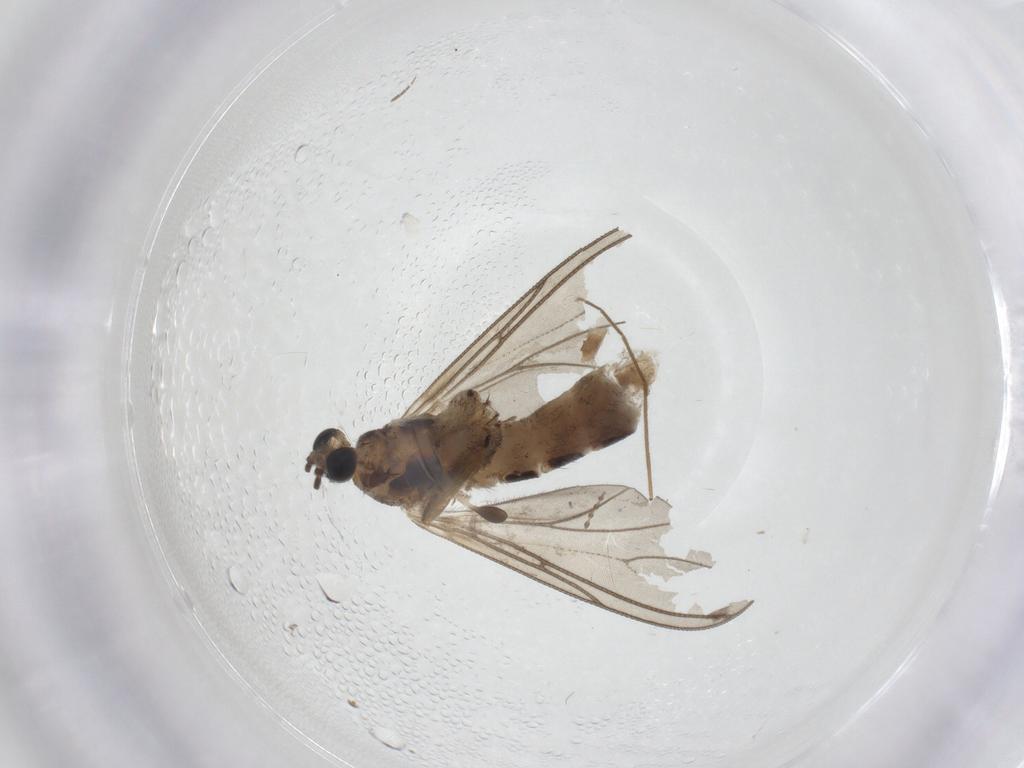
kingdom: Animalia
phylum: Arthropoda
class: Insecta
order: Diptera
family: Sciaridae
